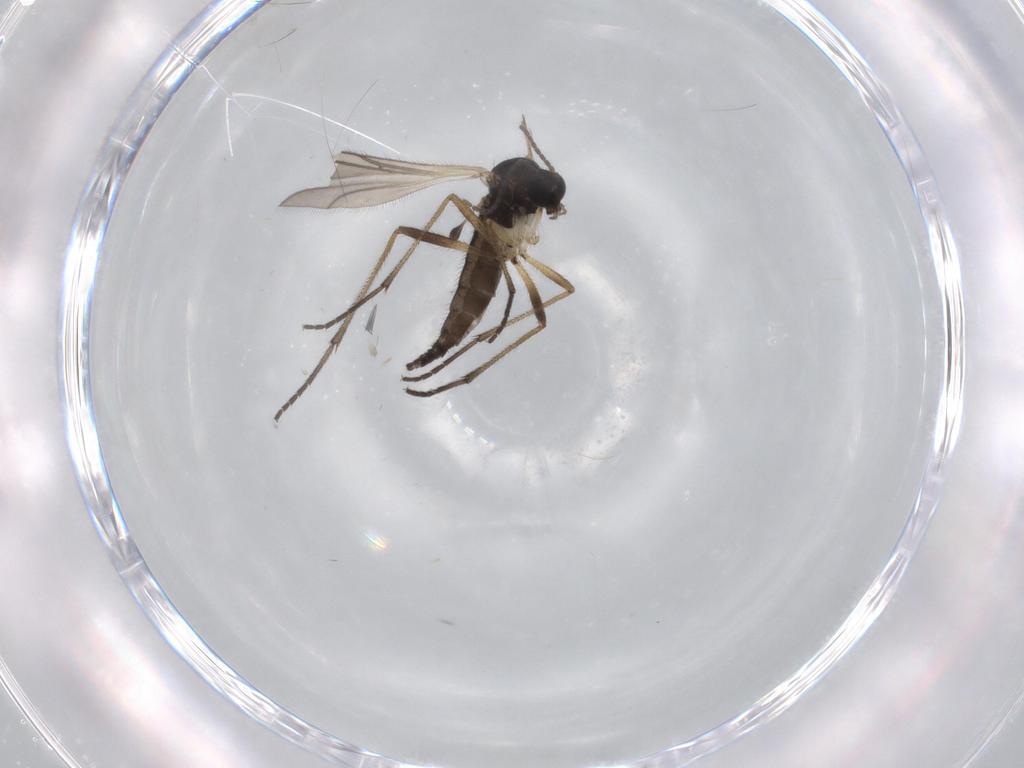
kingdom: Animalia
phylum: Arthropoda
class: Insecta
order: Diptera
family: Sciaridae
